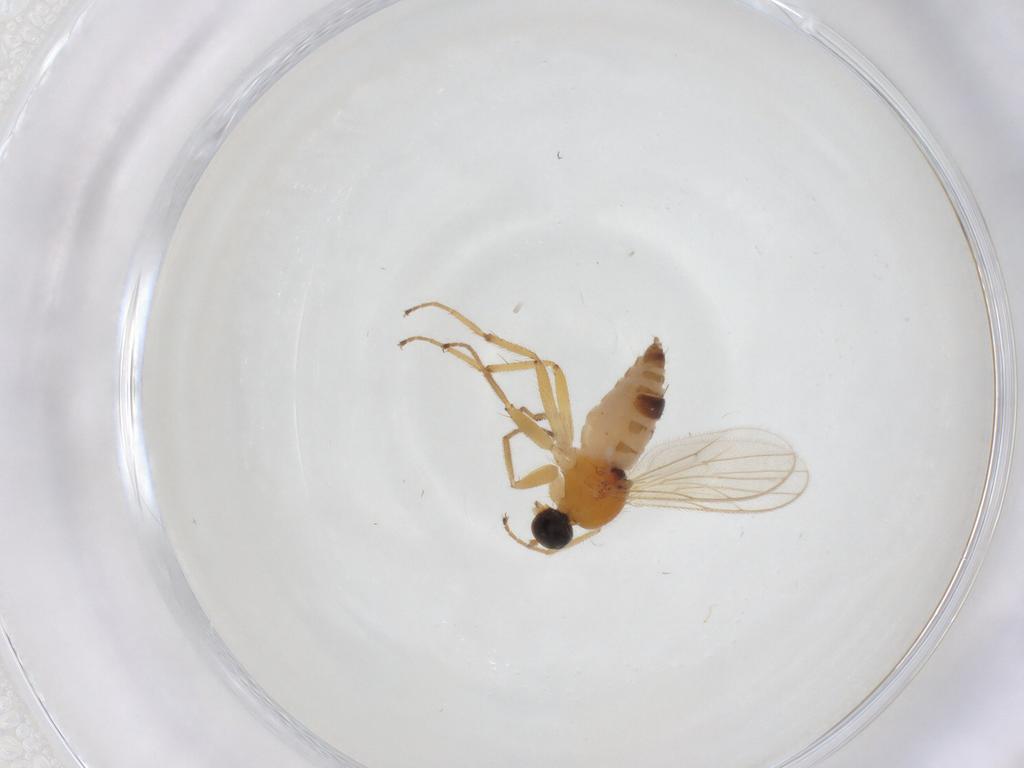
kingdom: Animalia
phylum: Arthropoda
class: Insecta
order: Diptera
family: Hybotidae
